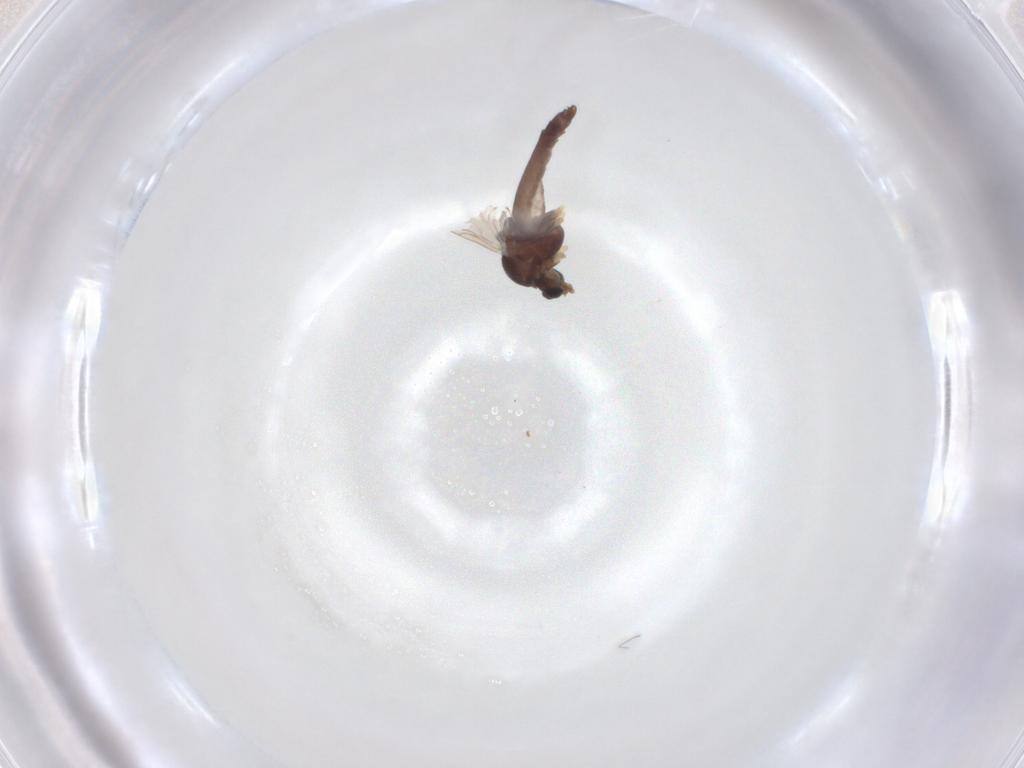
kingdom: Animalia
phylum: Arthropoda
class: Insecta
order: Diptera
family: Chironomidae
